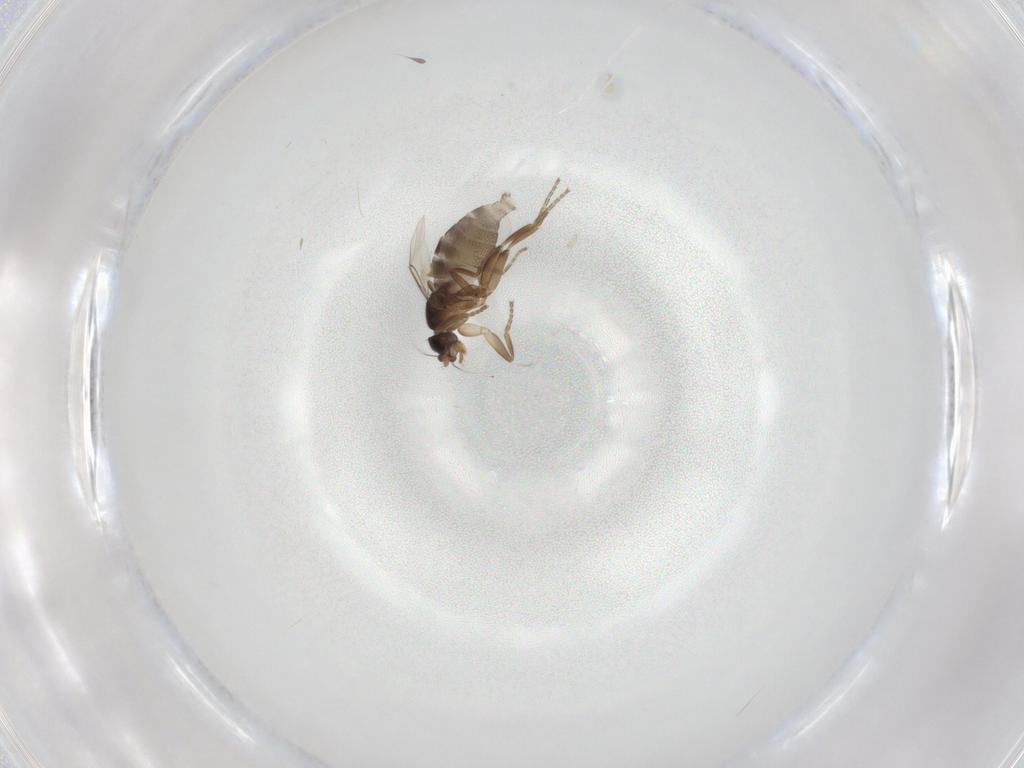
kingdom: Animalia
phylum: Arthropoda
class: Insecta
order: Diptera
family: Phoridae
